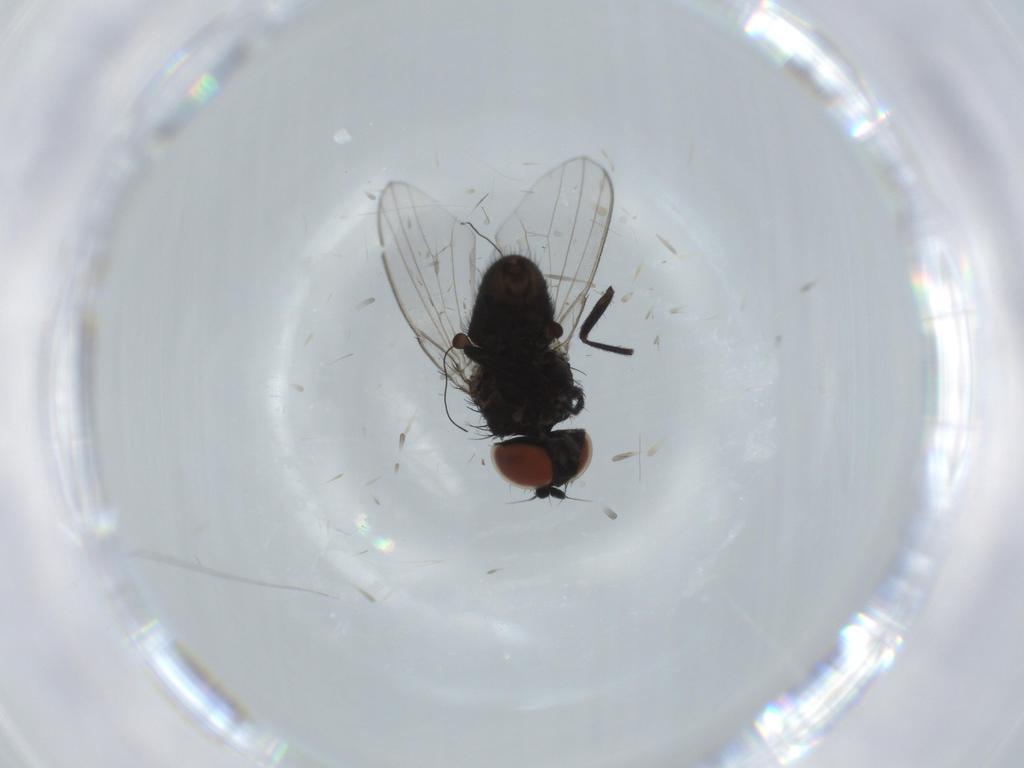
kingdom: Animalia
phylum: Arthropoda
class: Insecta
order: Diptera
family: Milichiidae
